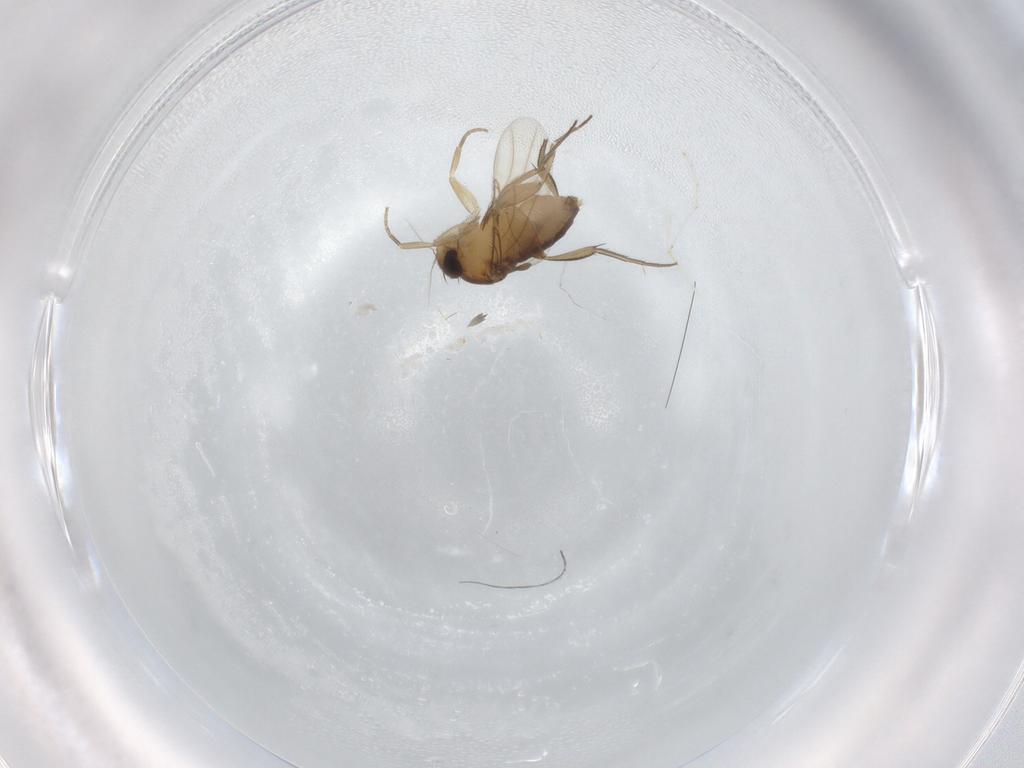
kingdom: Animalia
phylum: Arthropoda
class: Insecta
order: Diptera
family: Phoridae
